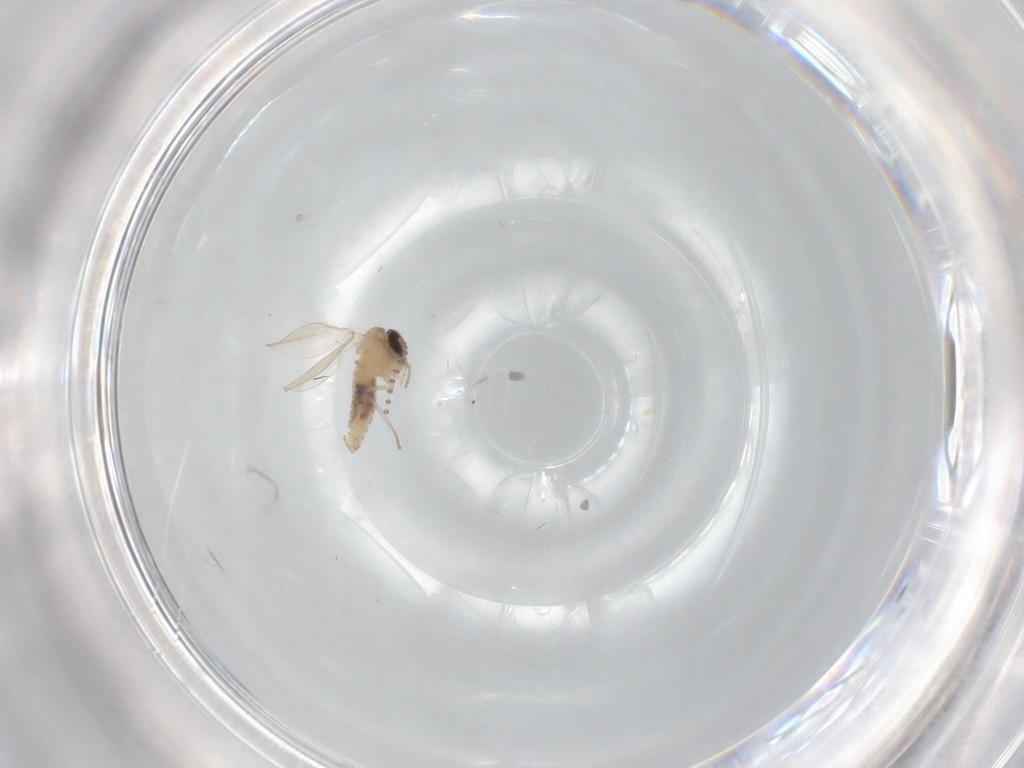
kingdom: Animalia
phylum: Arthropoda
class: Insecta
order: Diptera
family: Psychodidae
